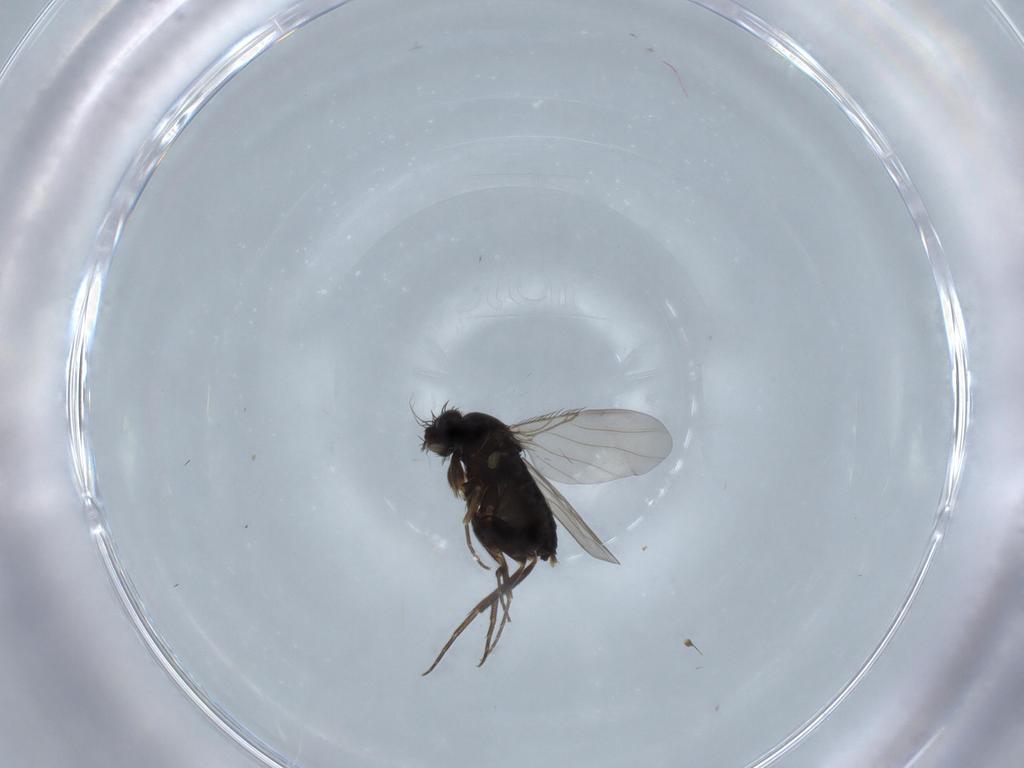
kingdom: Animalia
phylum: Arthropoda
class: Insecta
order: Diptera
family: Phoridae
